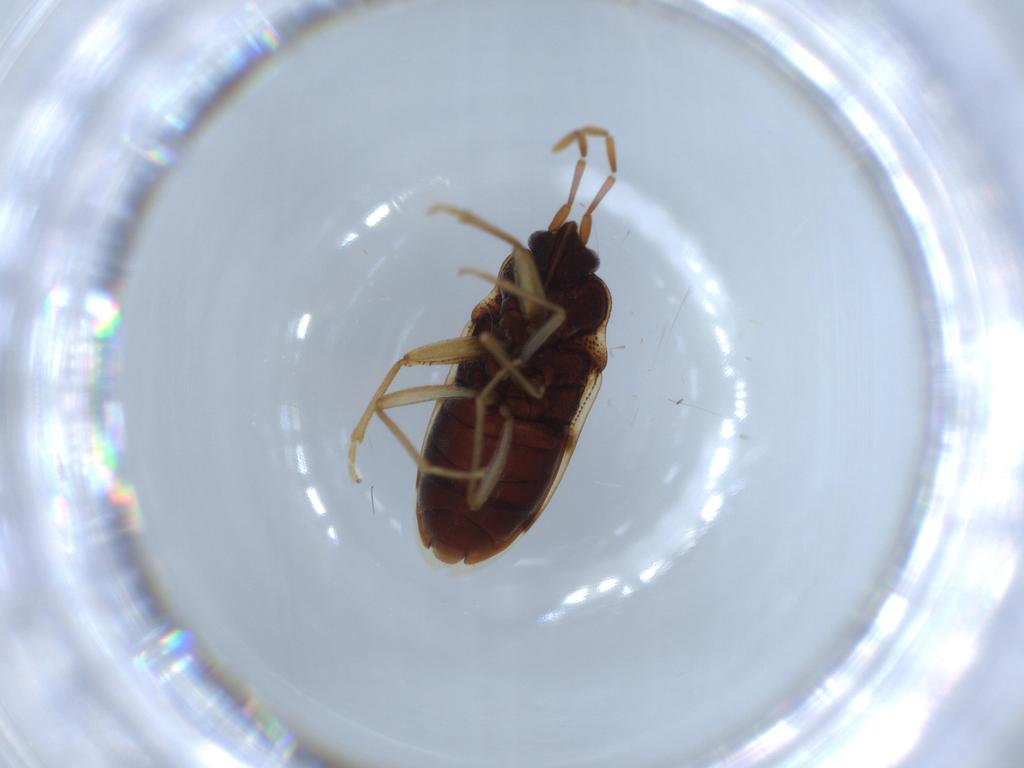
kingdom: Animalia
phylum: Arthropoda
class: Insecta
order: Hemiptera
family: Rhyparochromidae
